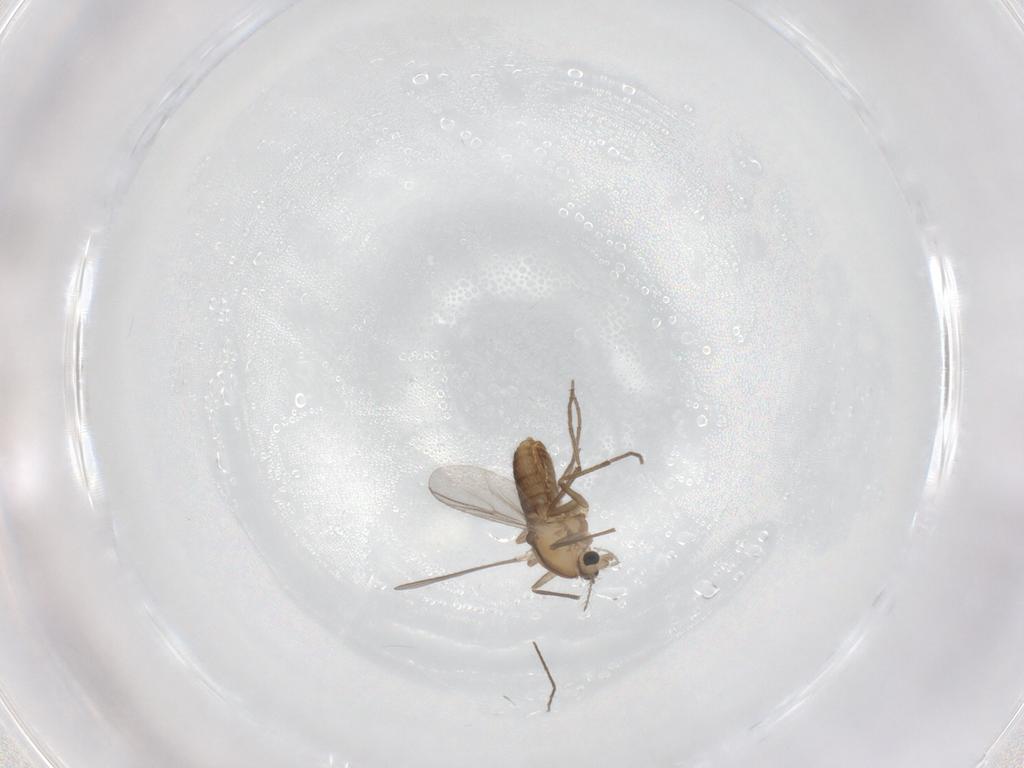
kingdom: Animalia
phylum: Arthropoda
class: Insecta
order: Diptera
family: Chironomidae
